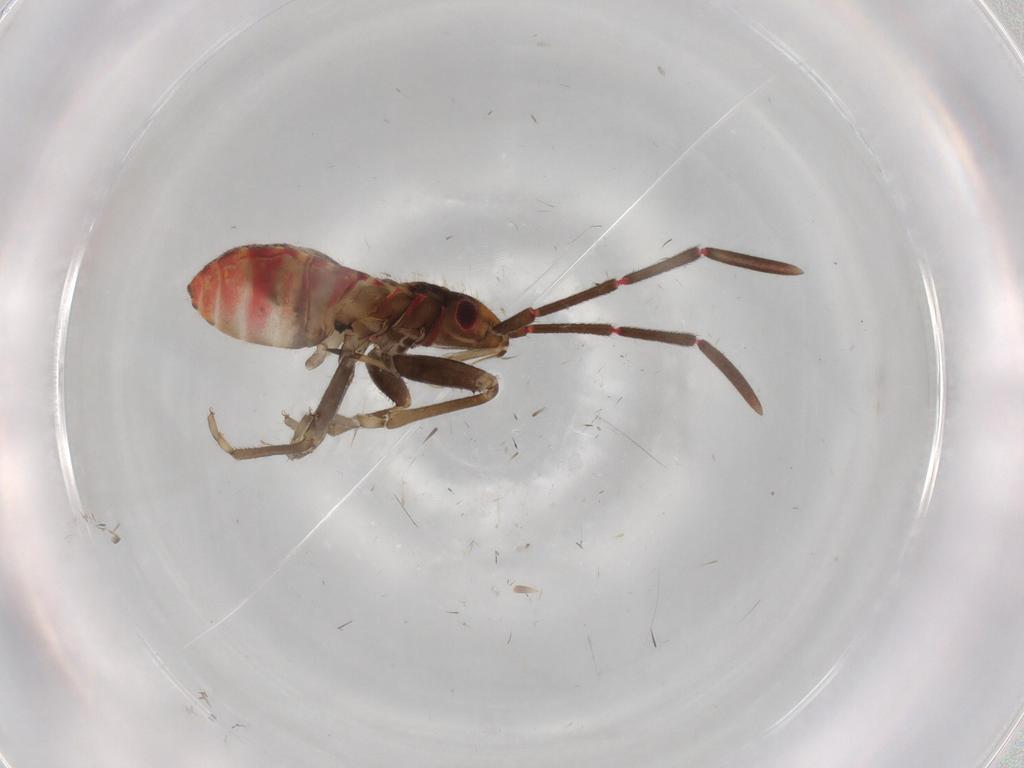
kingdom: Animalia
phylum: Arthropoda
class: Insecta
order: Hemiptera
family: Rhyparochromidae
